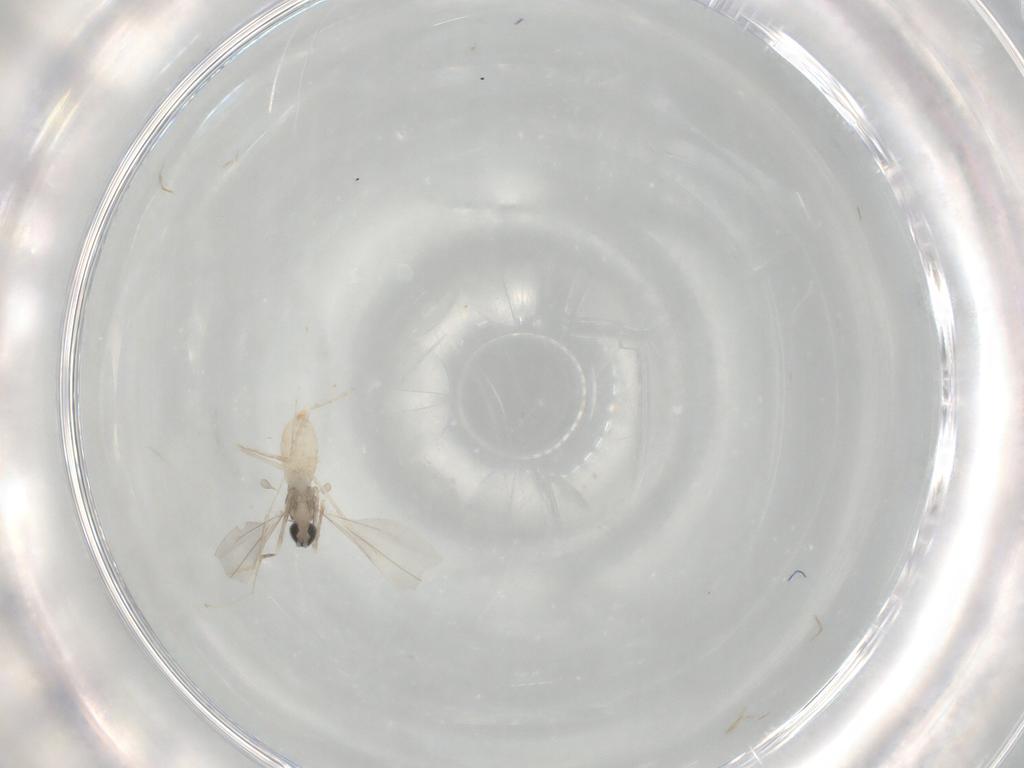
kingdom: Animalia
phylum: Arthropoda
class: Insecta
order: Diptera
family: Cecidomyiidae
